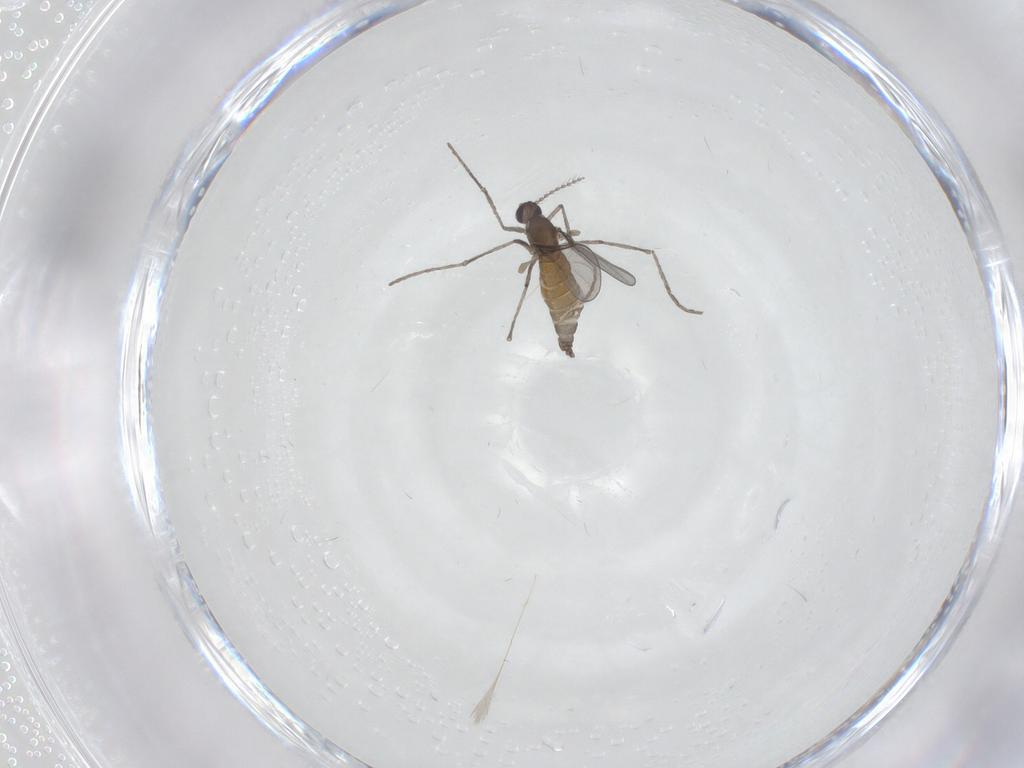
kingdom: Animalia
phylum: Arthropoda
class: Insecta
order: Diptera
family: Cecidomyiidae
